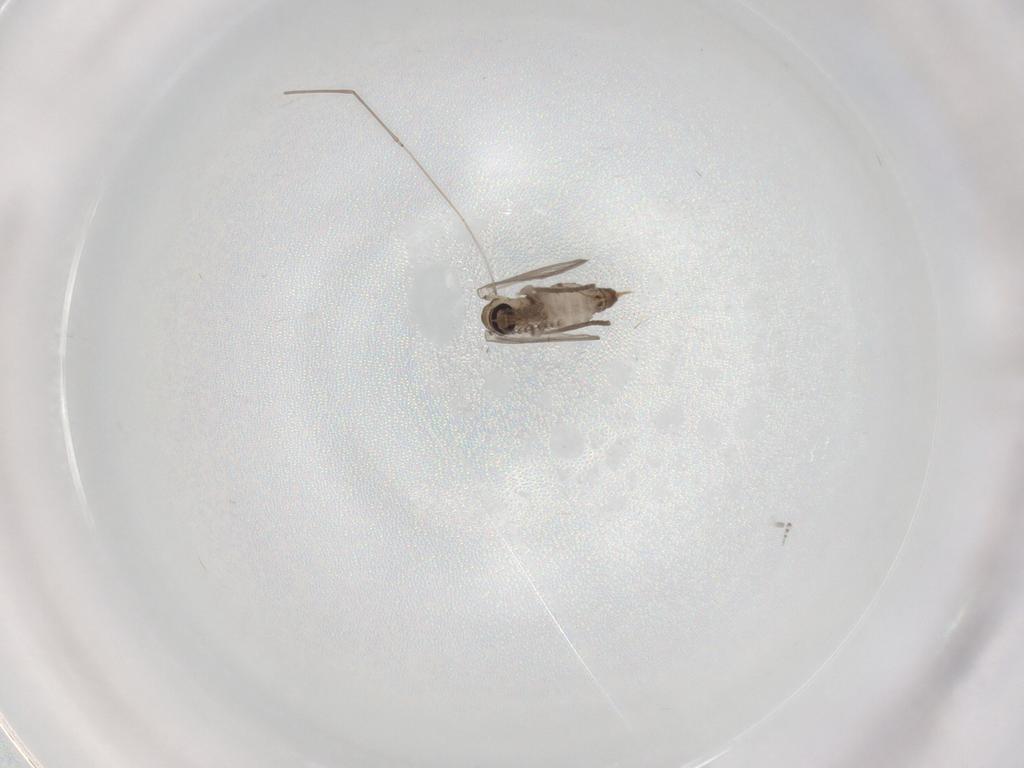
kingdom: Animalia
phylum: Arthropoda
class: Insecta
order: Diptera
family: Psychodidae
